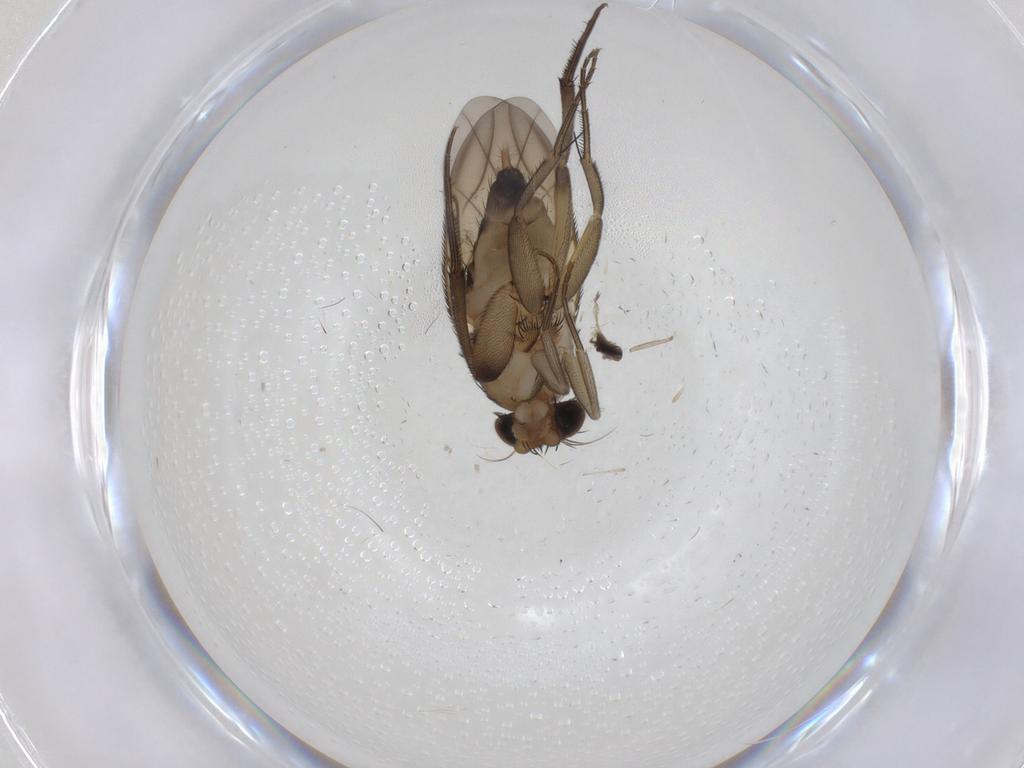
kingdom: Animalia
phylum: Arthropoda
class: Insecta
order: Diptera
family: Phoridae
